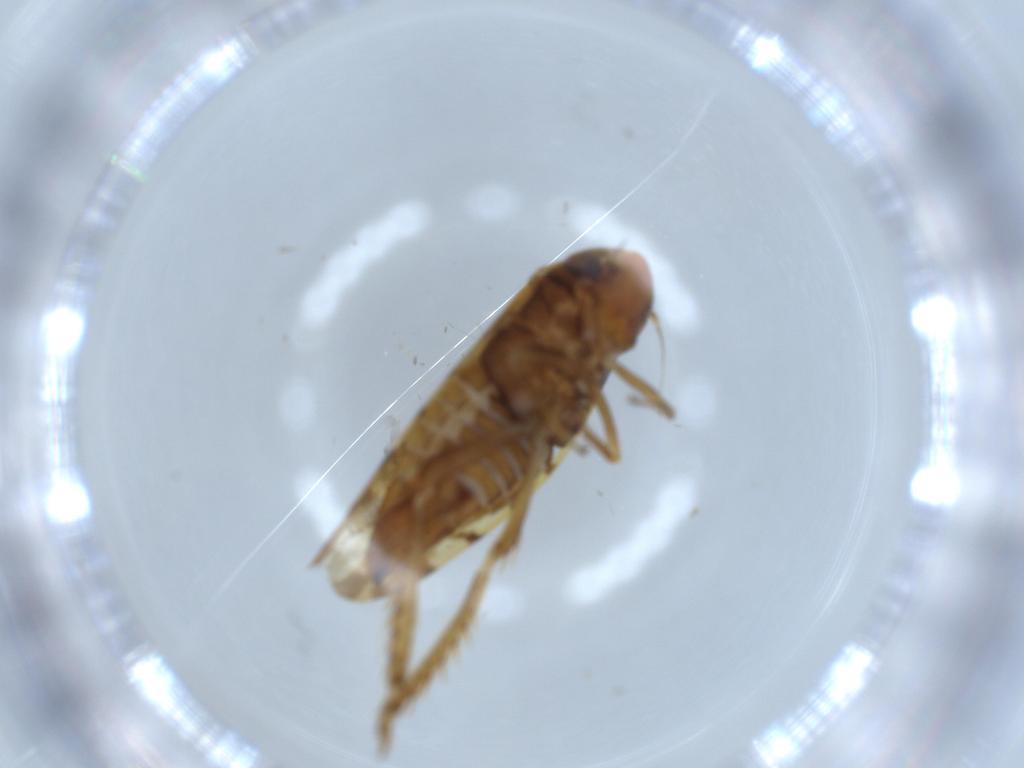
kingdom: Animalia
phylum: Arthropoda
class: Insecta
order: Hemiptera
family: Cicadellidae
